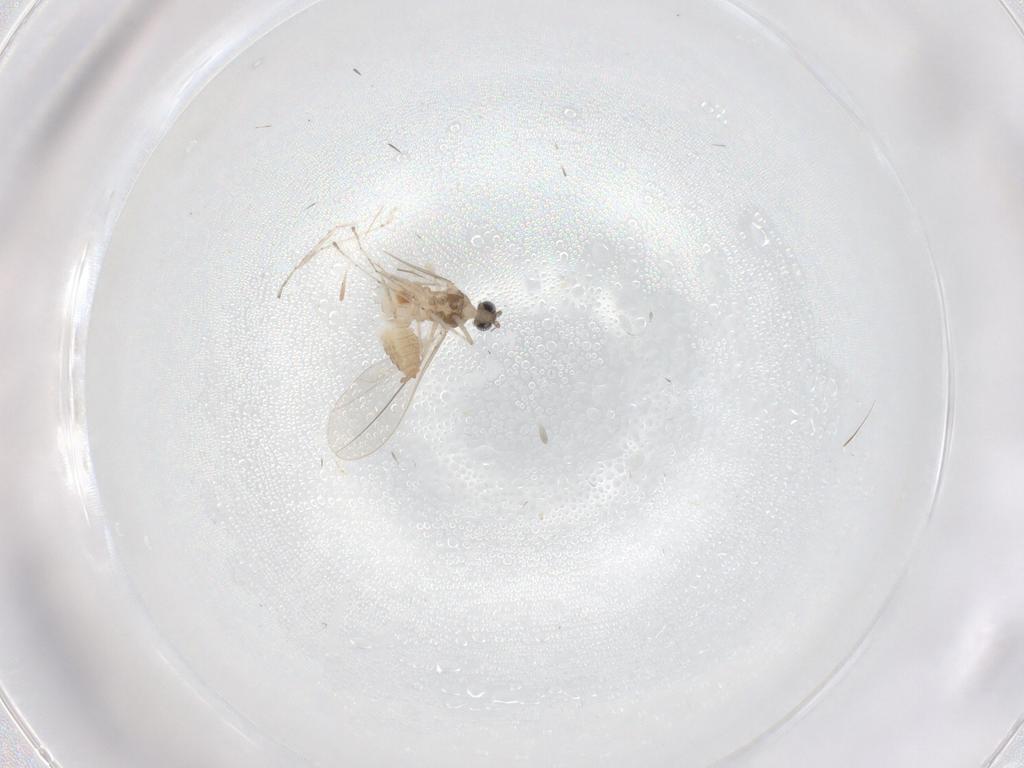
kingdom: Animalia
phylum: Arthropoda
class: Insecta
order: Diptera
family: Cecidomyiidae
